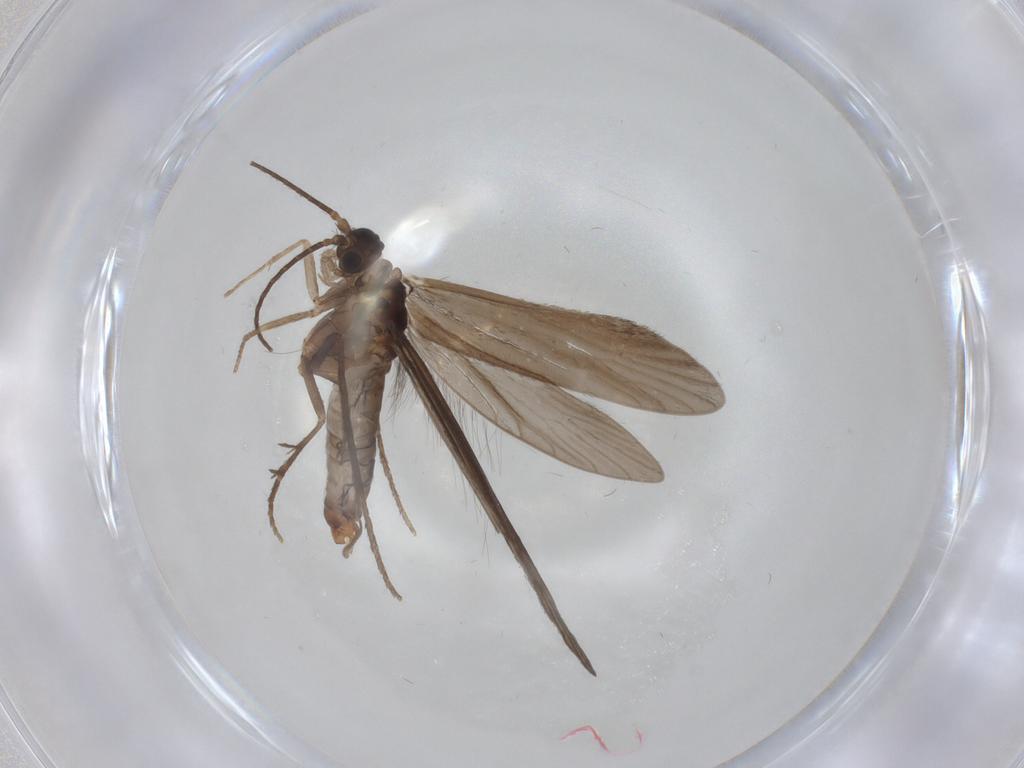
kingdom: Animalia
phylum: Arthropoda
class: Insecta
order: Trichoptera
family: Xiphocentronidae
